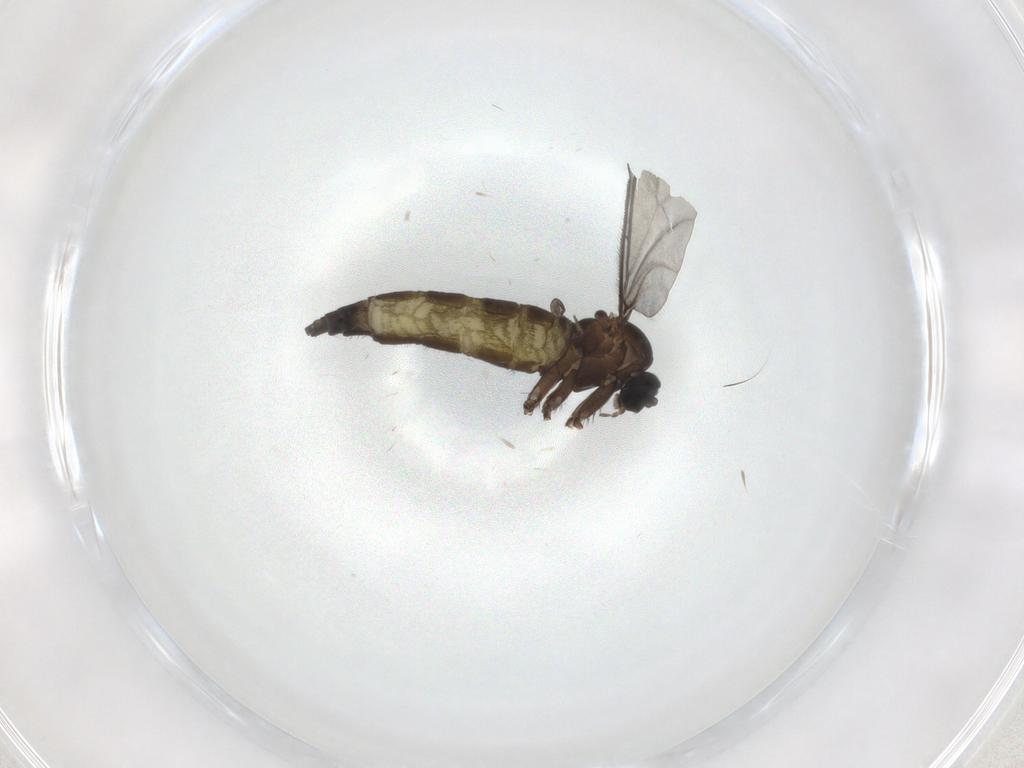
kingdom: Animalia
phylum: Arthropoda
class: Insecta
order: Diptera
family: Sciaridae
